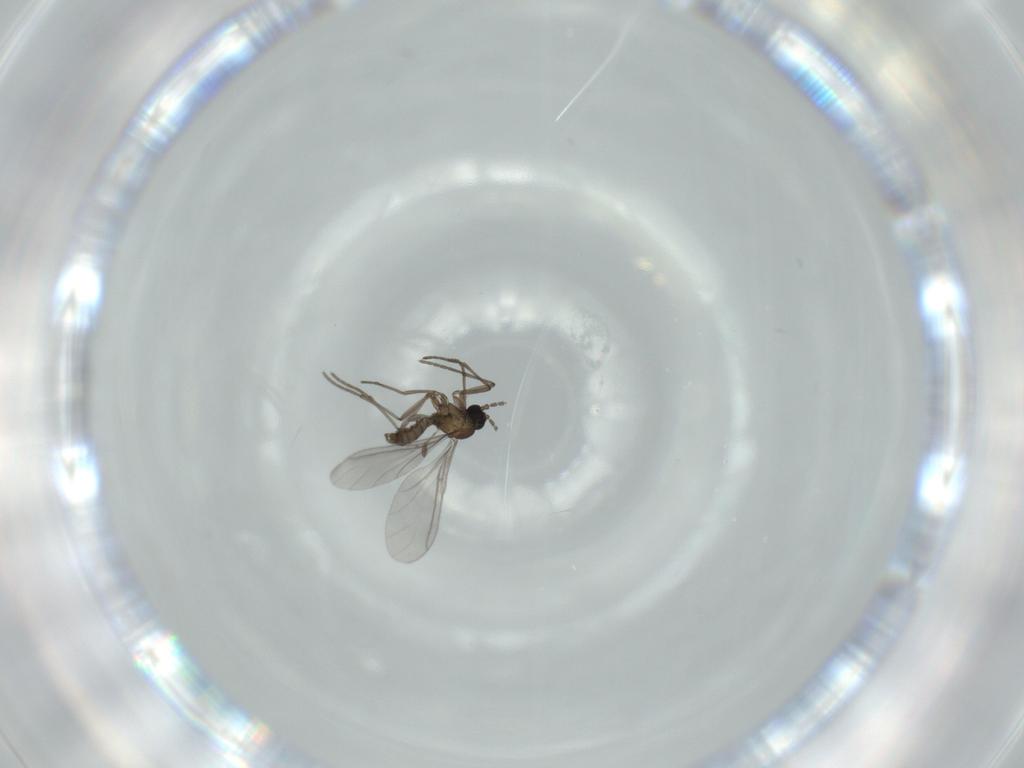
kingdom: Animalia
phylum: Arthropoda
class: Insecta
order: Diptera
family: Sciaridae
